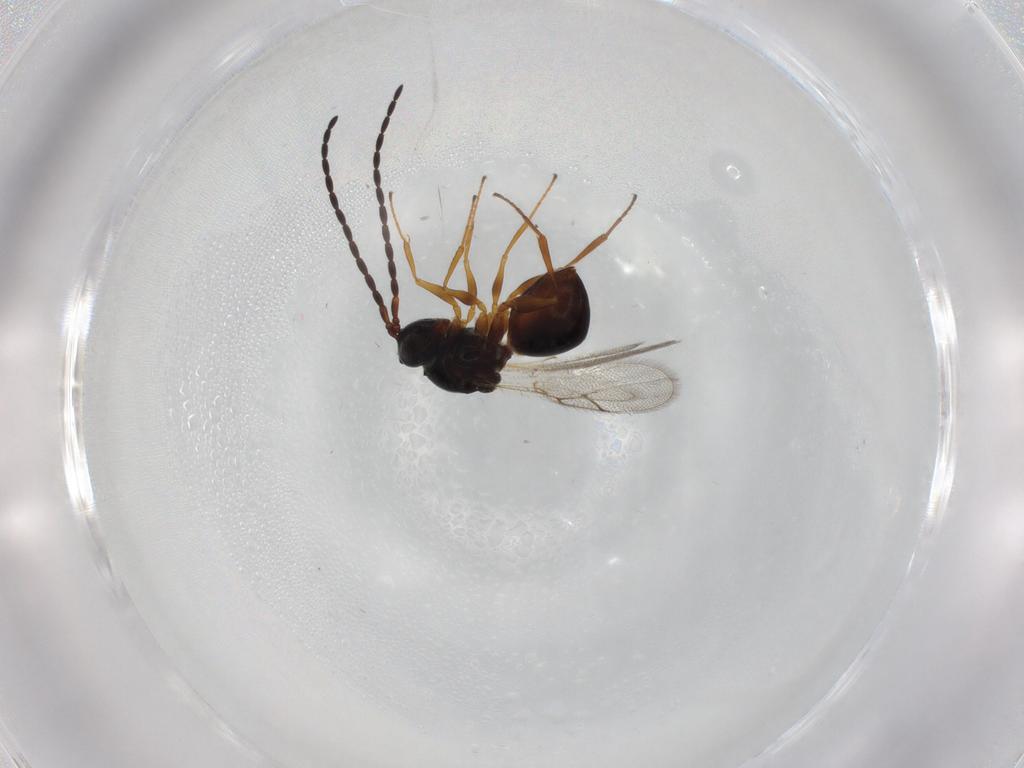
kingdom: Animalia
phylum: Arthropoda
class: Insecta
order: Hymenoptera
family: Figitidae
